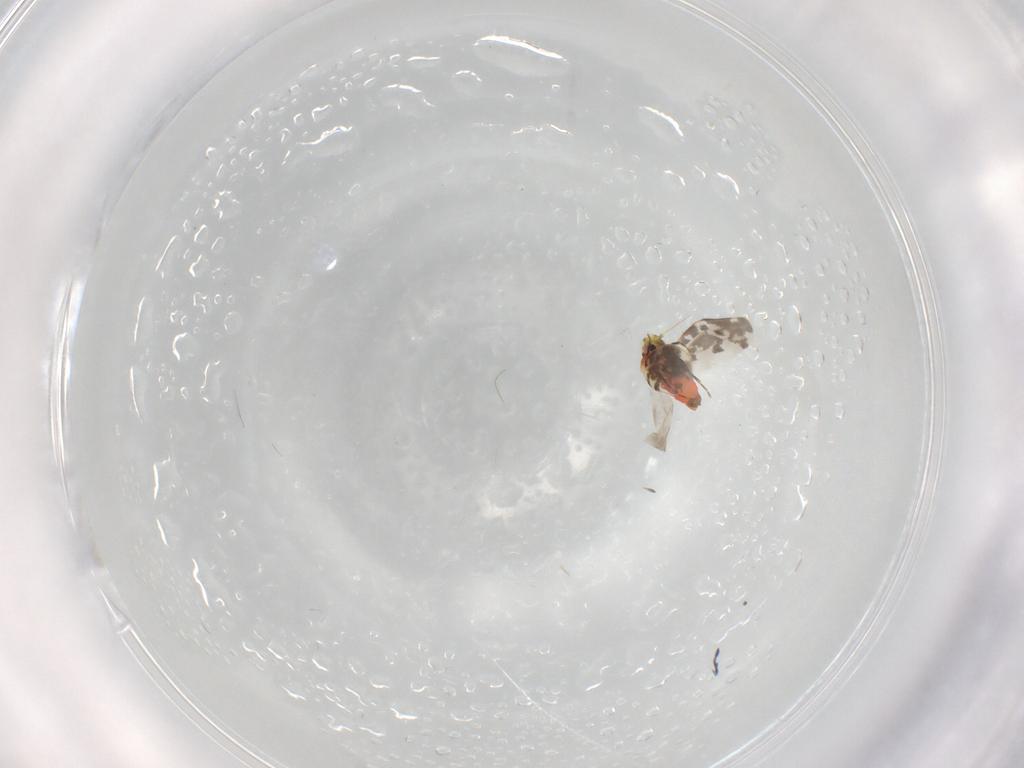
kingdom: Animalia
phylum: Arthropoda
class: Insecta
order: Hemiptera
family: Aleyrodidae
